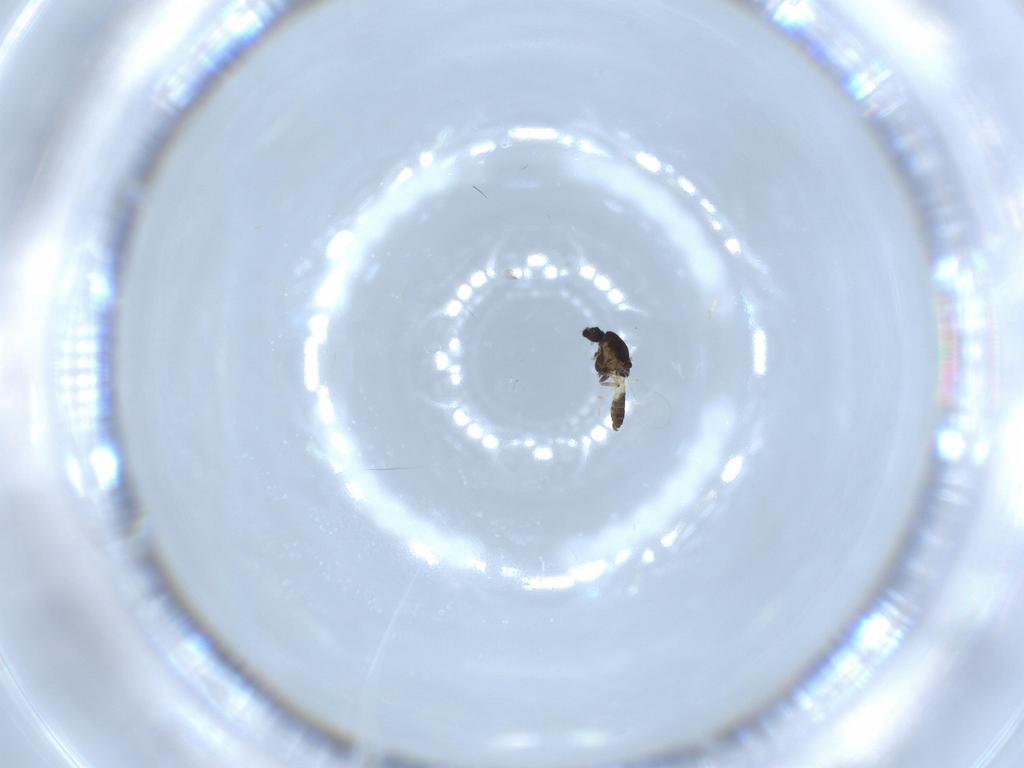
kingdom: Animalia
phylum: Arthropoda
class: Insecta
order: Diptera
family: Chironomidae
